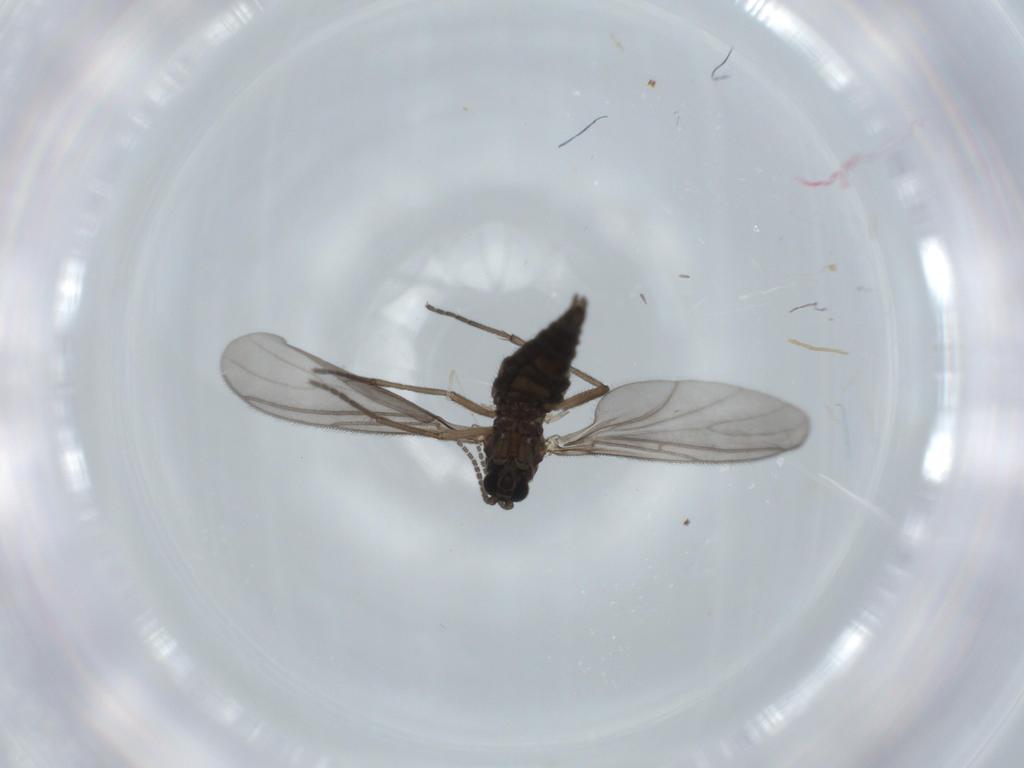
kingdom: Animalia
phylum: Arthropoda
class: Insecta
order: Diptera
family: Sciaridae
